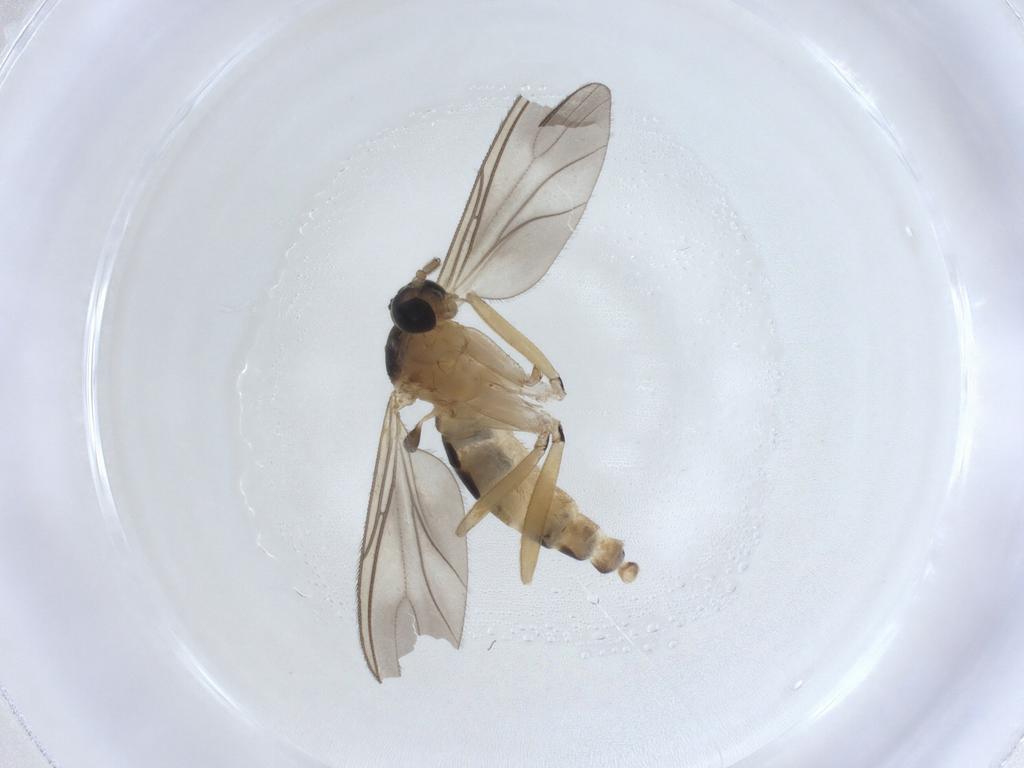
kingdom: Animalia
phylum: Arthropoda
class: Insecta
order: Diptera
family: Sciaridae
